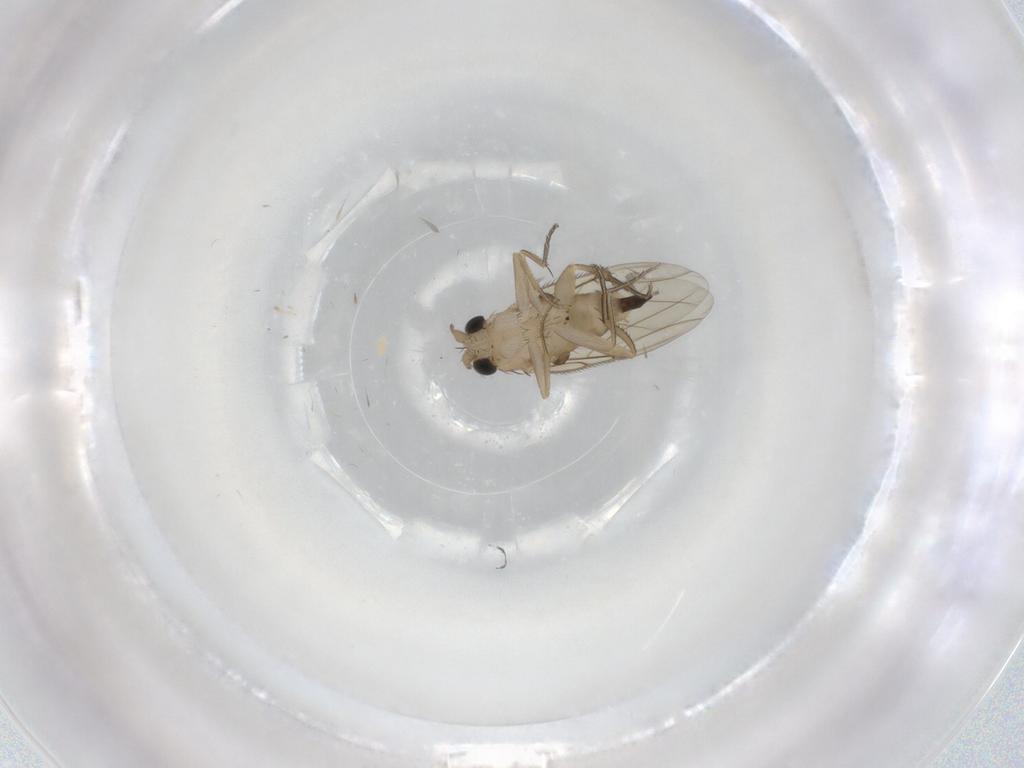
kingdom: Animalia
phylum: Arthropoda
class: Insecta
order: Diptera
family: Phoridae
